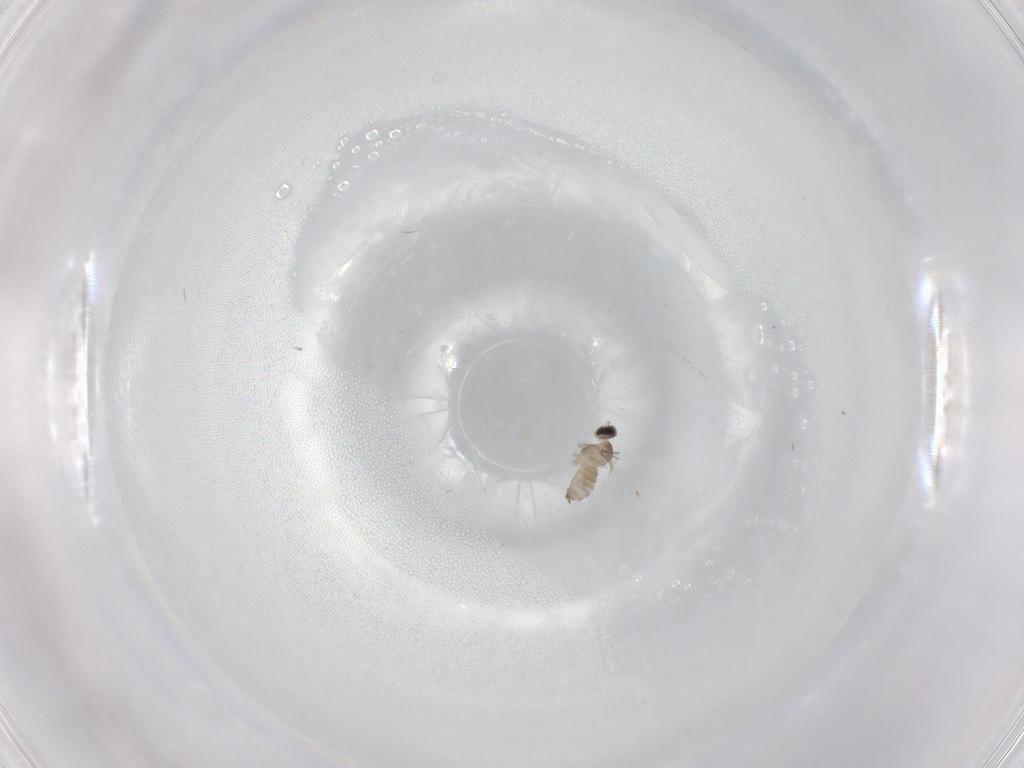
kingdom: Animalia
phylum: Arthropoda
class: Insecta
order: Diptera
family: Cecidomyiidae
